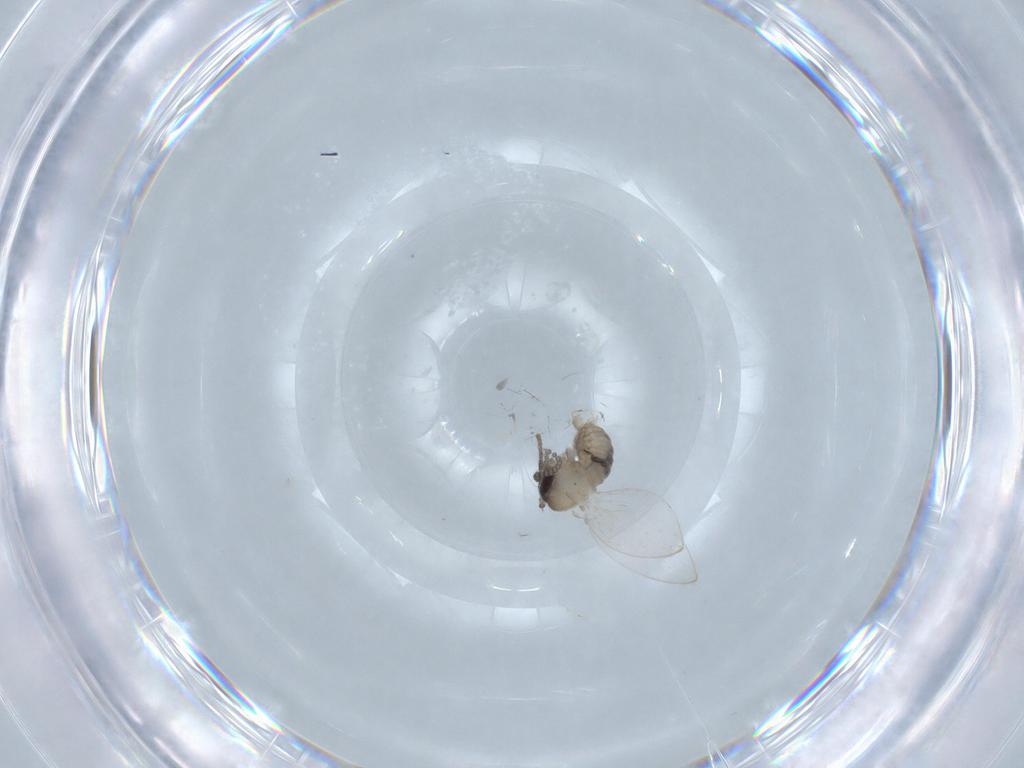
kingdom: Animalia
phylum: Arthropoda
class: Insecta
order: Diptera
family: Psychodidae
